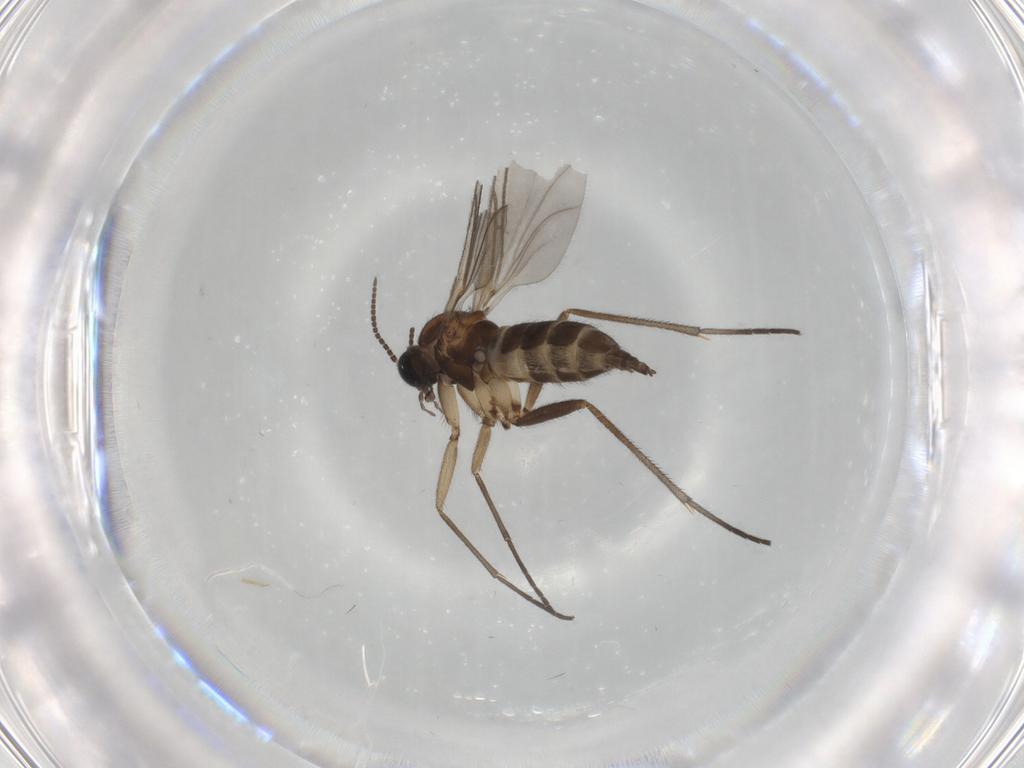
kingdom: Animalia
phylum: Arthropoda
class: Insecta
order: Diptera
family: Sciaridae
